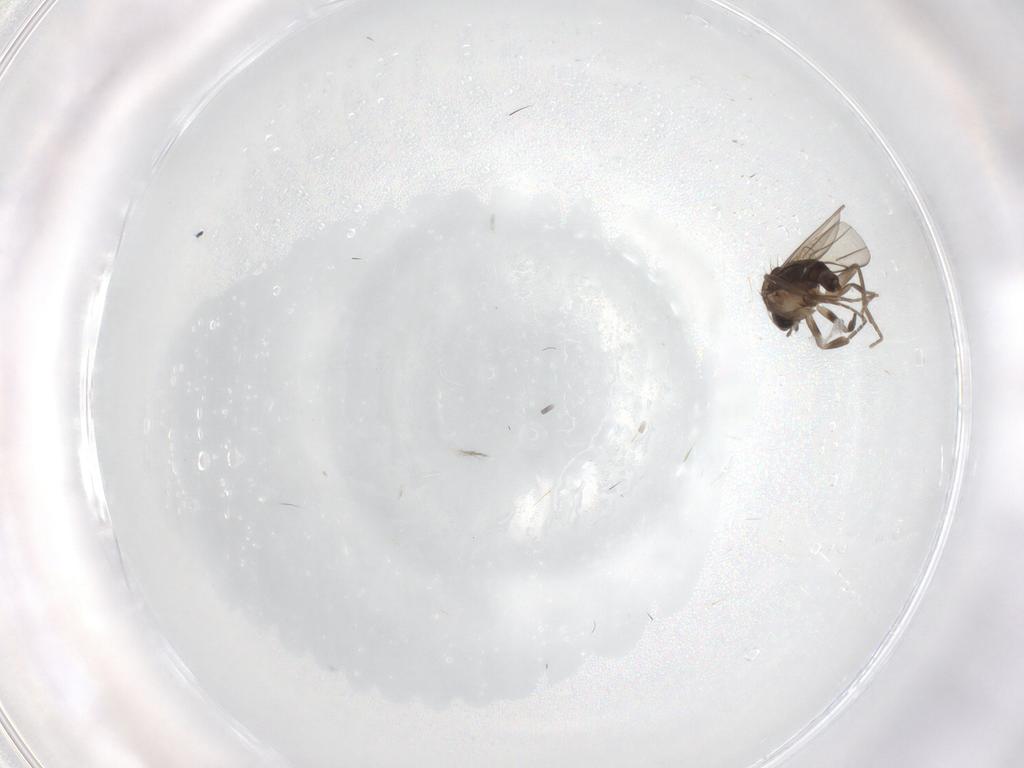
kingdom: Animalia
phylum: Arthropoda
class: Insecta
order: Diptera
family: Phoridae
